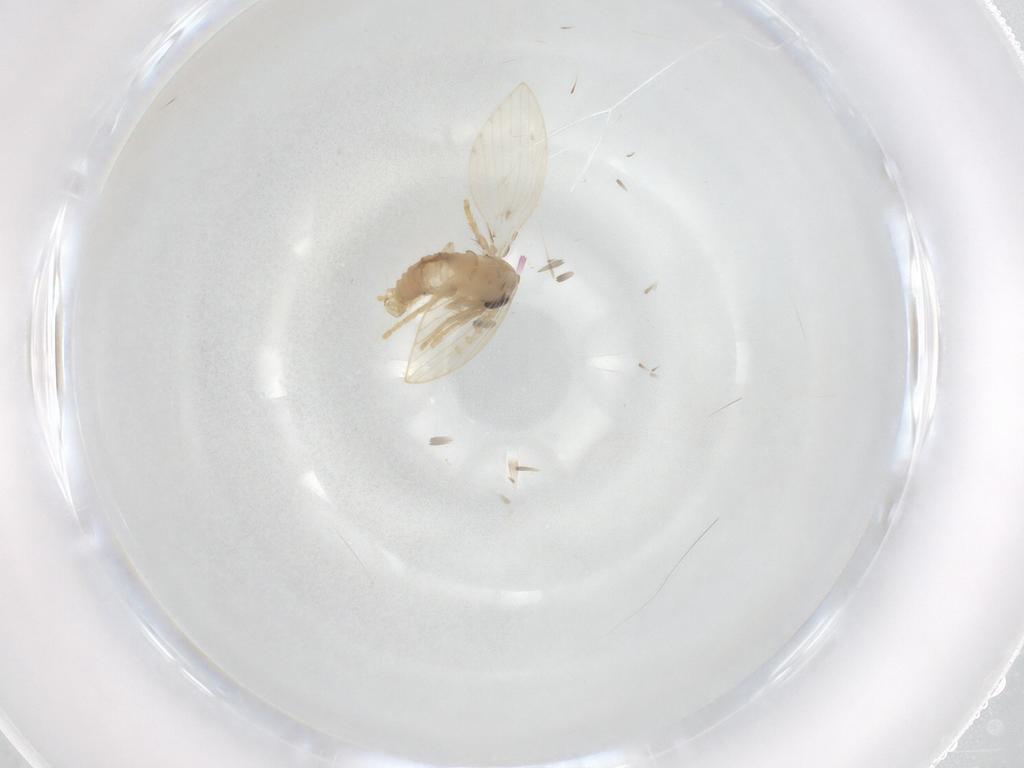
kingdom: Animalia
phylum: Arthropoda
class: Insecta
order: Diptera
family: Psychodidae
